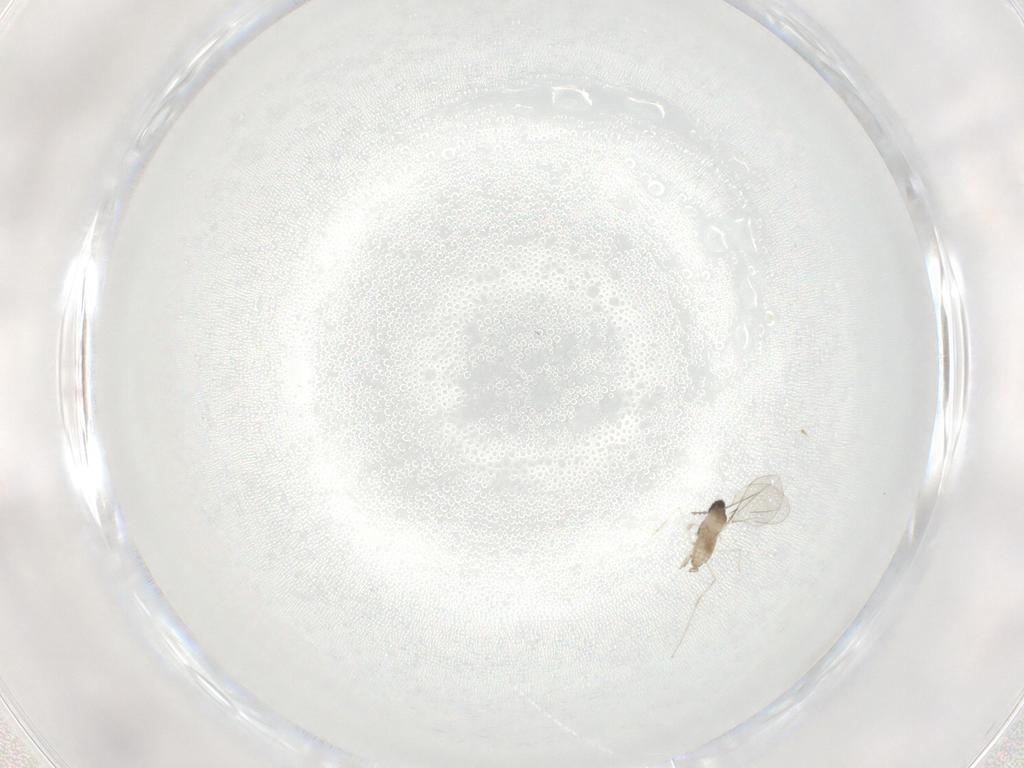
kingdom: Animalia
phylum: Arthropoda
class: Insecta
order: Diptera
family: Cecidomyiidae
